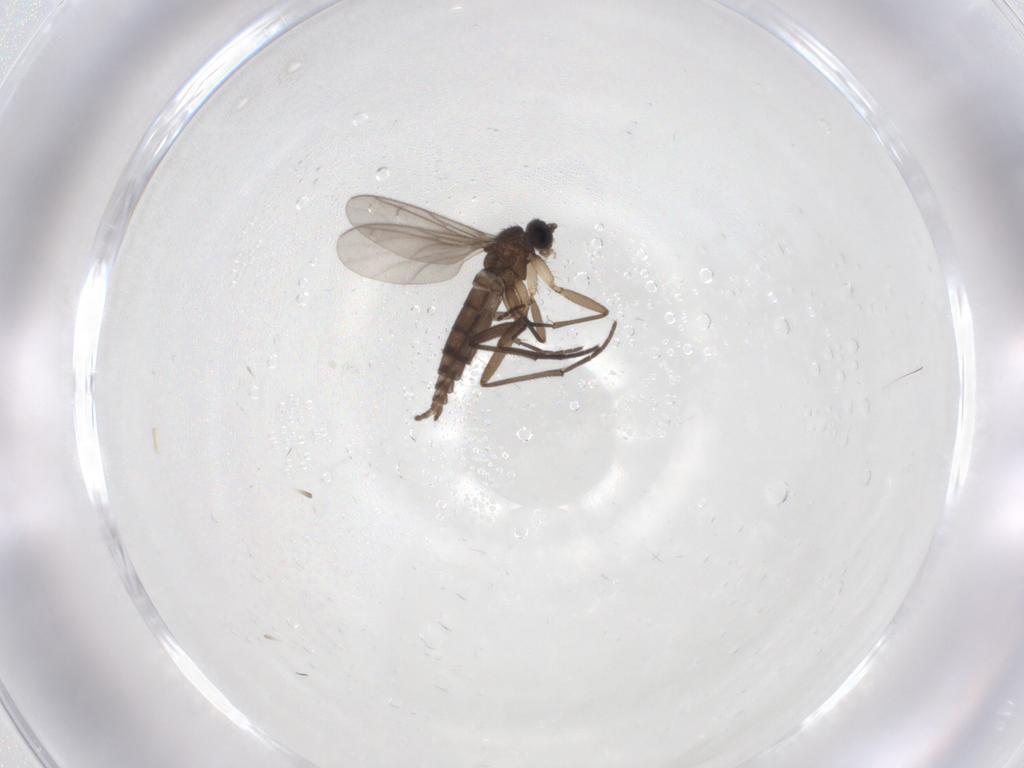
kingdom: Animalia
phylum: Arthropoda
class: Insecta
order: Diptera
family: Sciaridae
